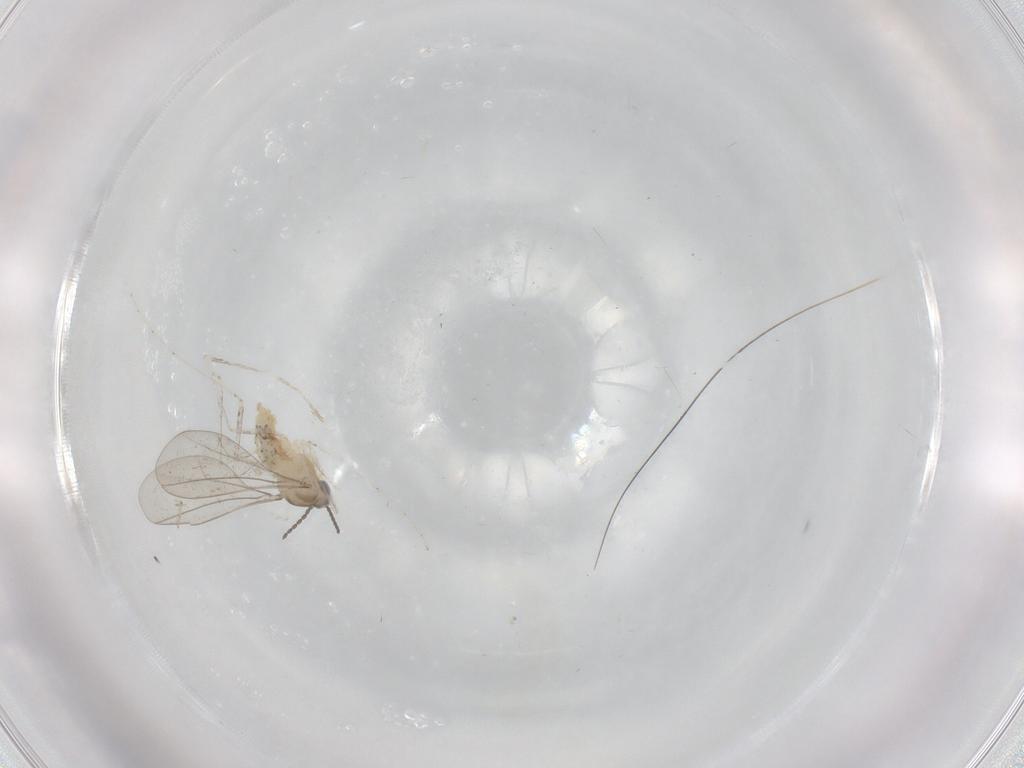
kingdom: Animalia
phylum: Arthropoda
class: Insecta
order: Diptera
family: Cecidomyiidae
